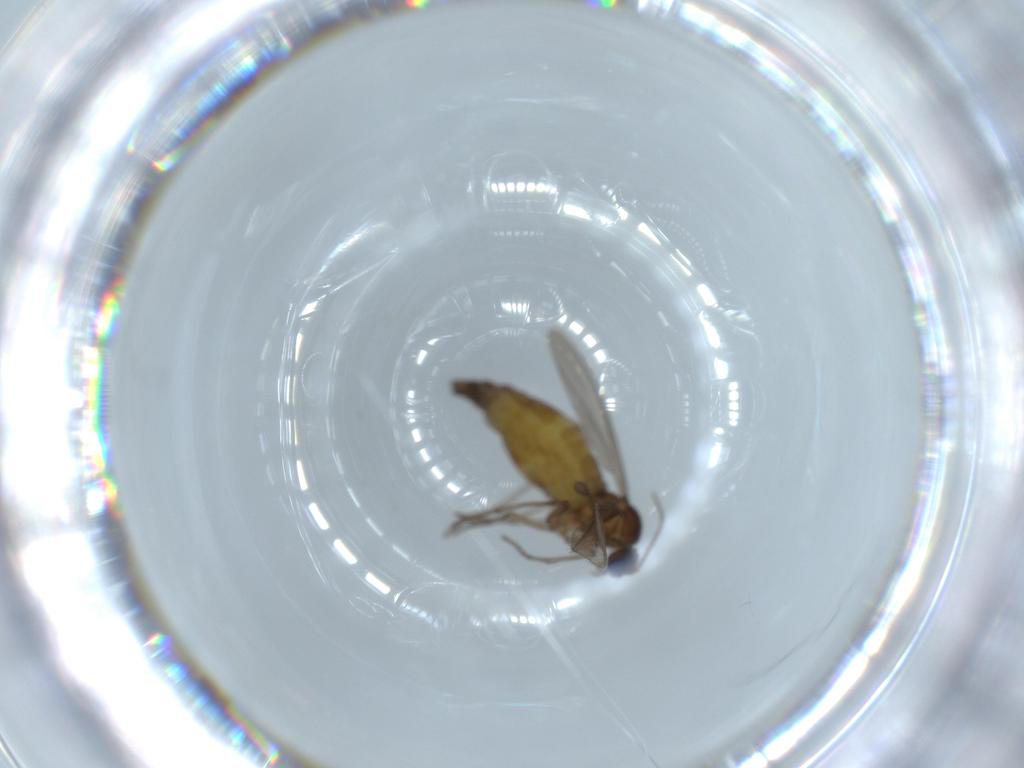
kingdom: Animalia
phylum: Arthropoda
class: Insecta
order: Diptera
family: Sciaridae
